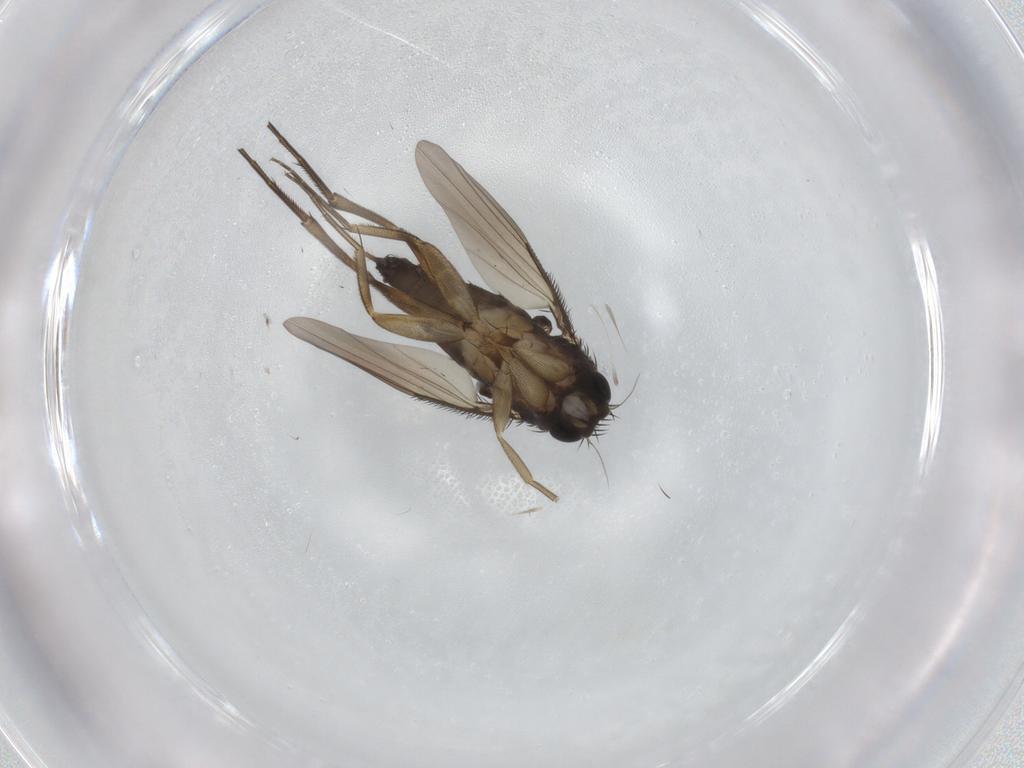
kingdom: Animalia
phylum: Arthropoda
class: Insecta
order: Diptera
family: Phoridae
